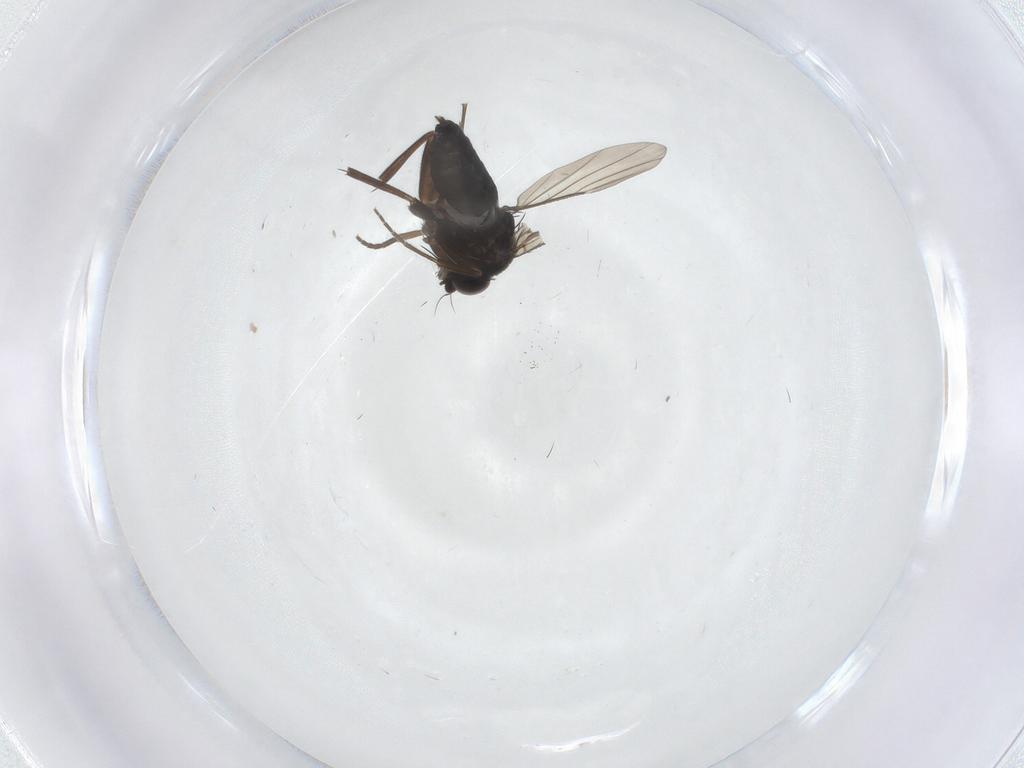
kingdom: Animalia
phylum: Arthropoda
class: Insecta
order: Diptera
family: Phoridae
